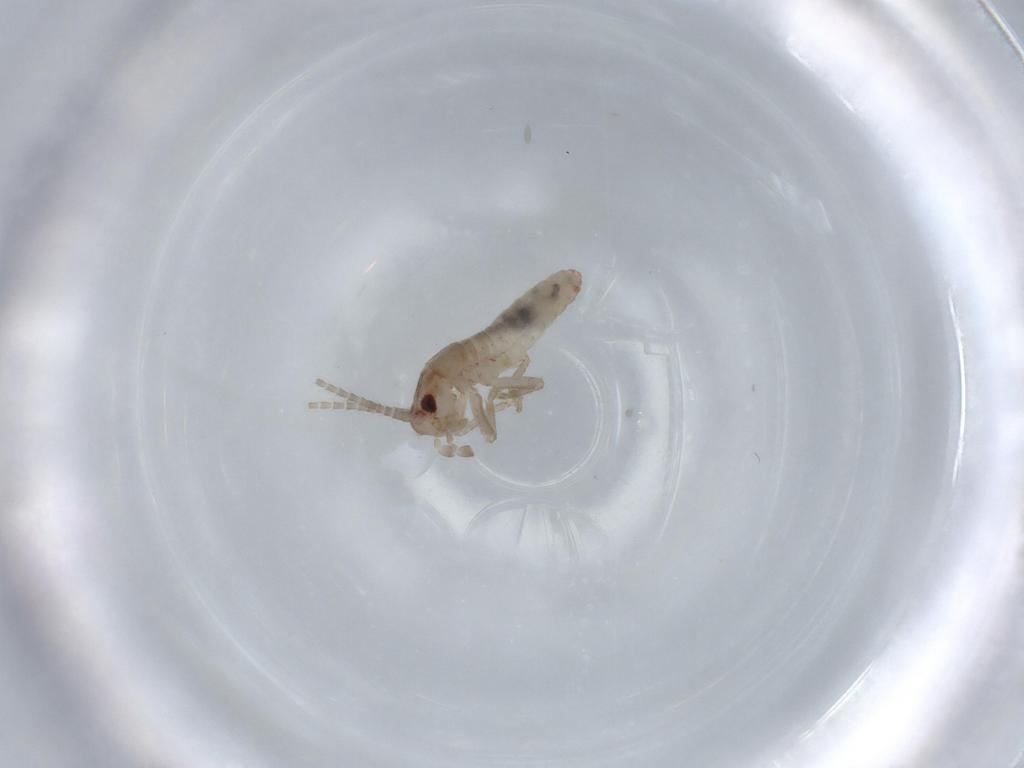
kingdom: Animalia
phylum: Arthropoda
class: Insecta
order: Orthoptera
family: Mogoplistidae
